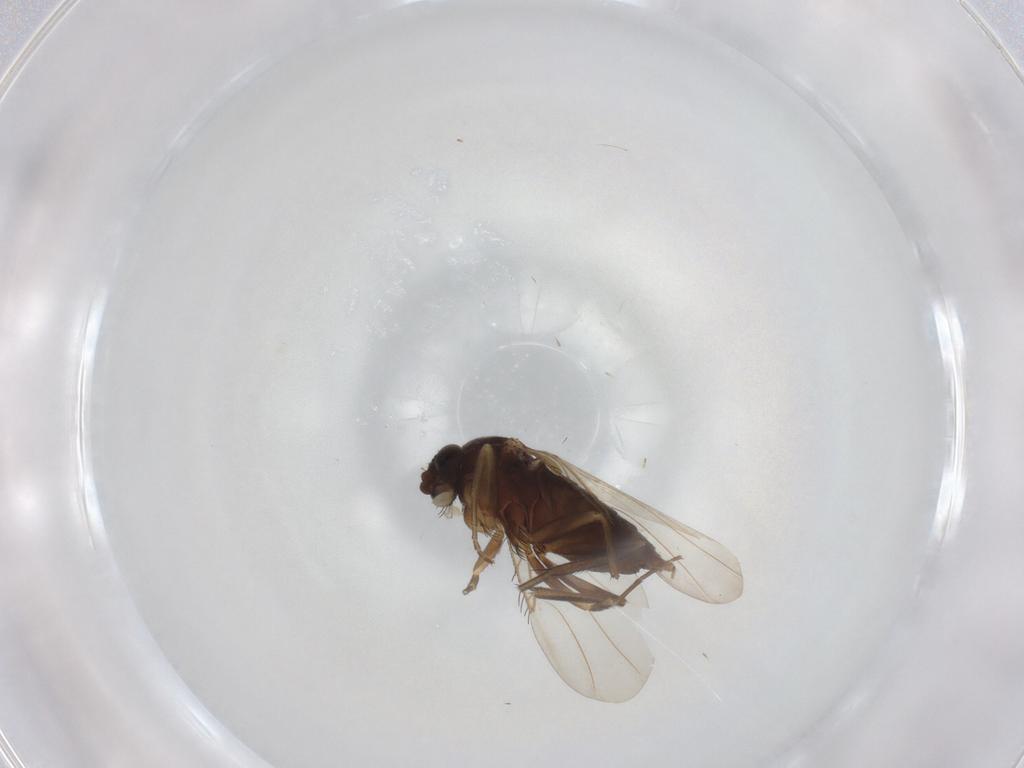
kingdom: Animalia
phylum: Arthropoda
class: Insecta
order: Diptera
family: Phoridae
